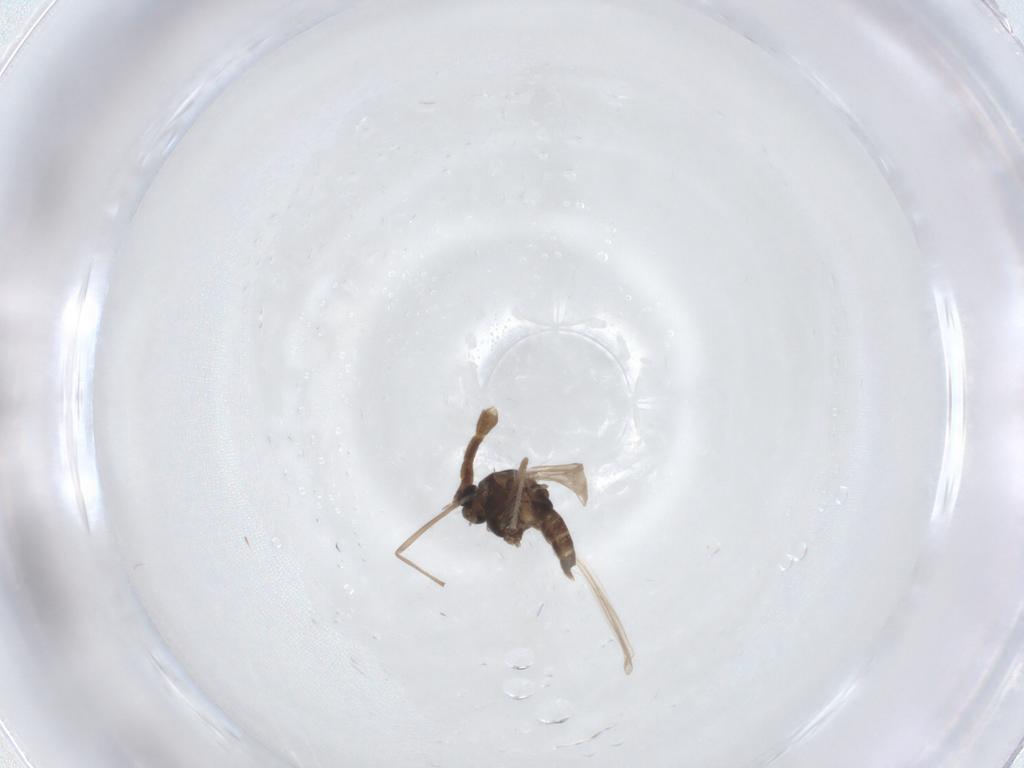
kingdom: Animalia
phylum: Arthropoda
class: Insecta
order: Diptera
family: Chironomidae
